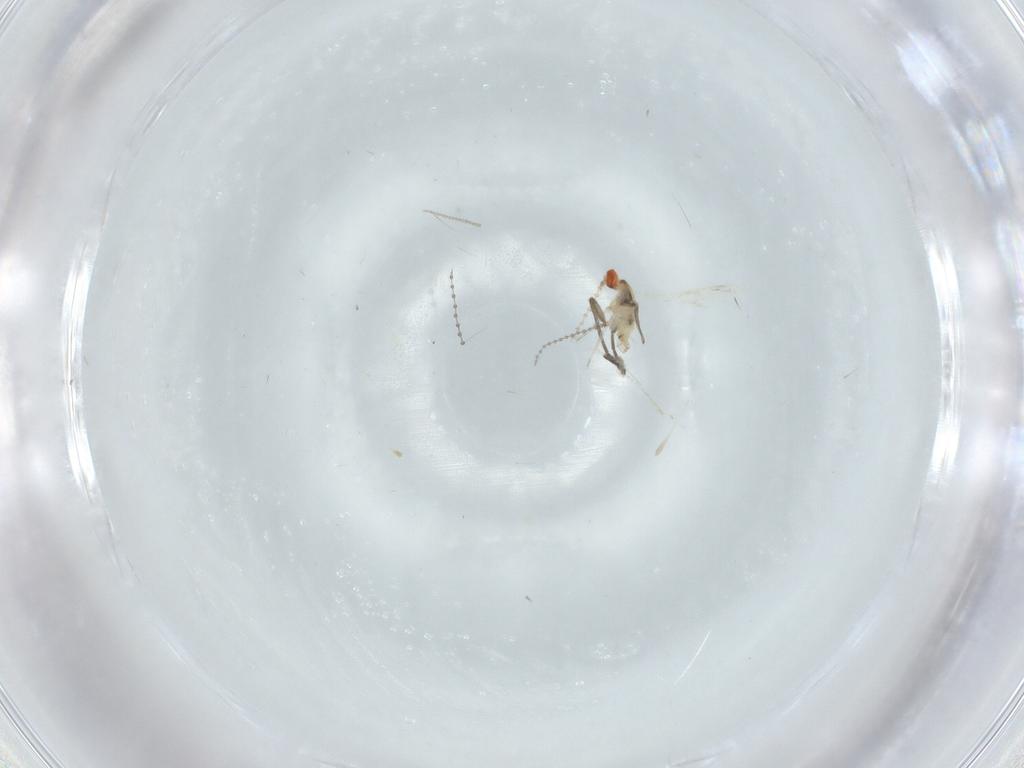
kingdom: Animalia
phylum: Arthropoda
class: Insecta
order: Diptera
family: Cecidomyiidae
